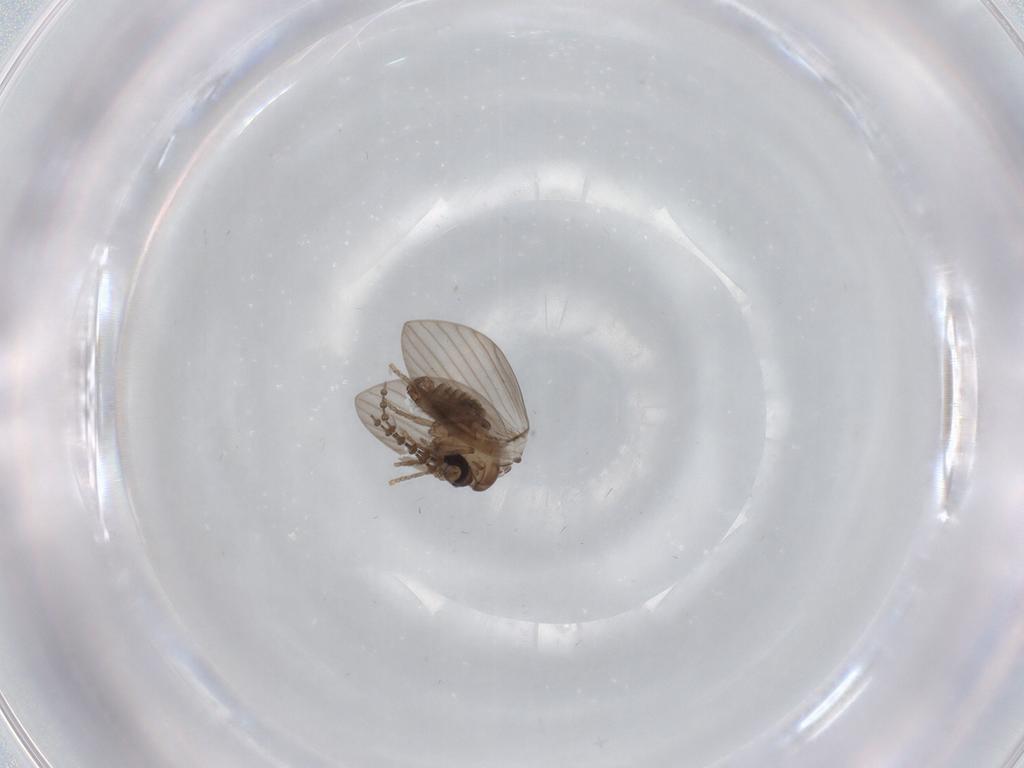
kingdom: Animalia
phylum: Arthropoda
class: Insecta
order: Diptera
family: Psychodidae
